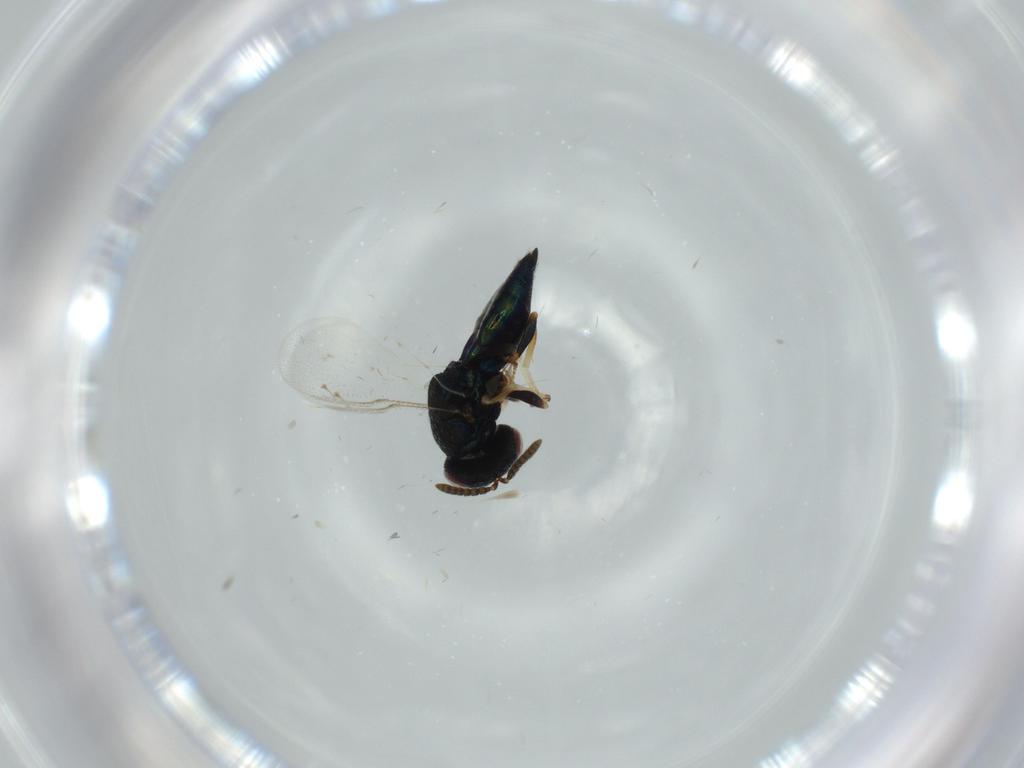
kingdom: Animalia
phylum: Arthropoda
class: Insecta
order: Hymenoptera
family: Pteromalidae
